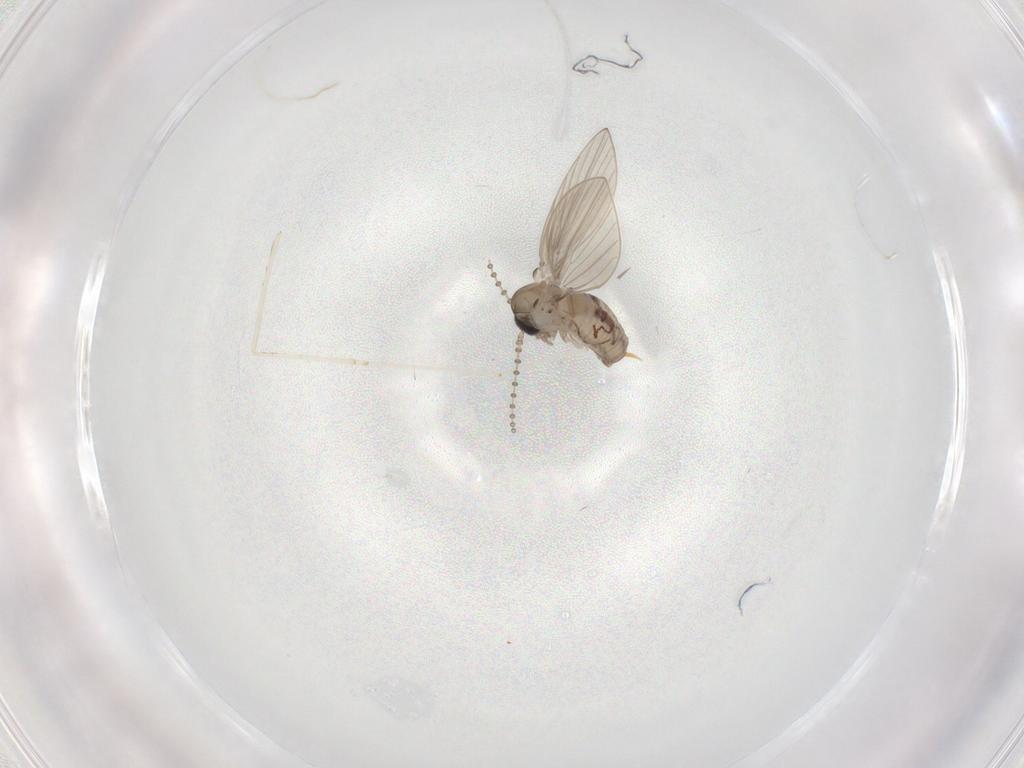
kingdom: Animalia
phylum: Arthropoda
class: Insecta
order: Diptera
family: Psychodidae
